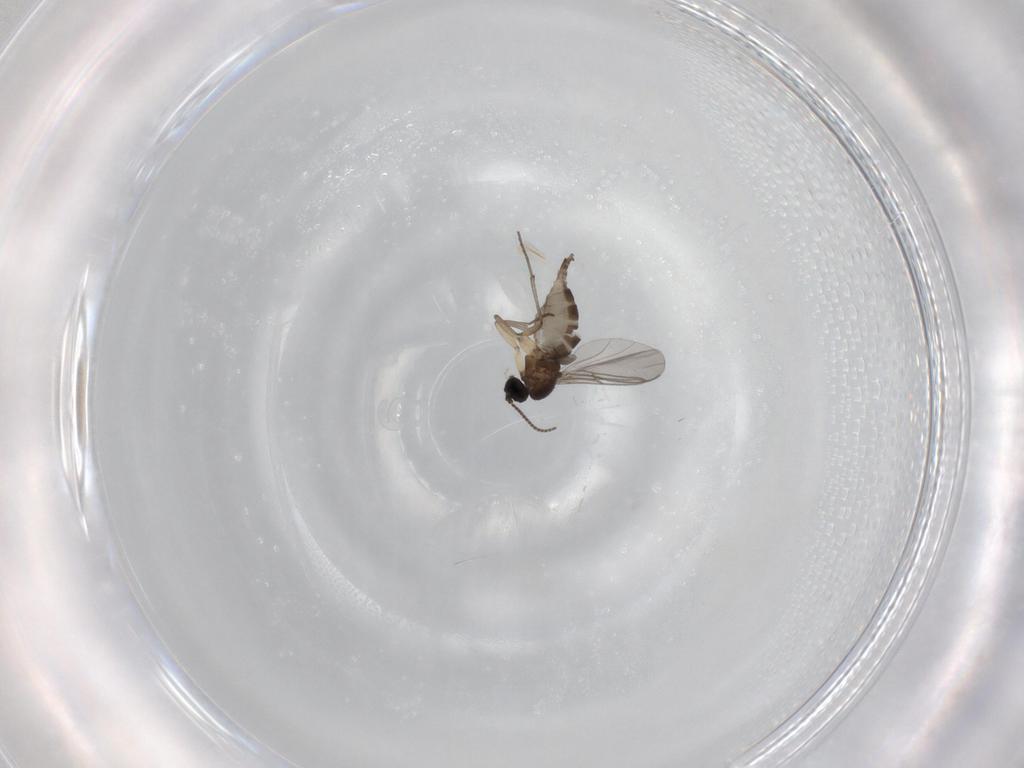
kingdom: Animalia
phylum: Arthropoda
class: Insecta
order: Diptera
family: Sciaridae
